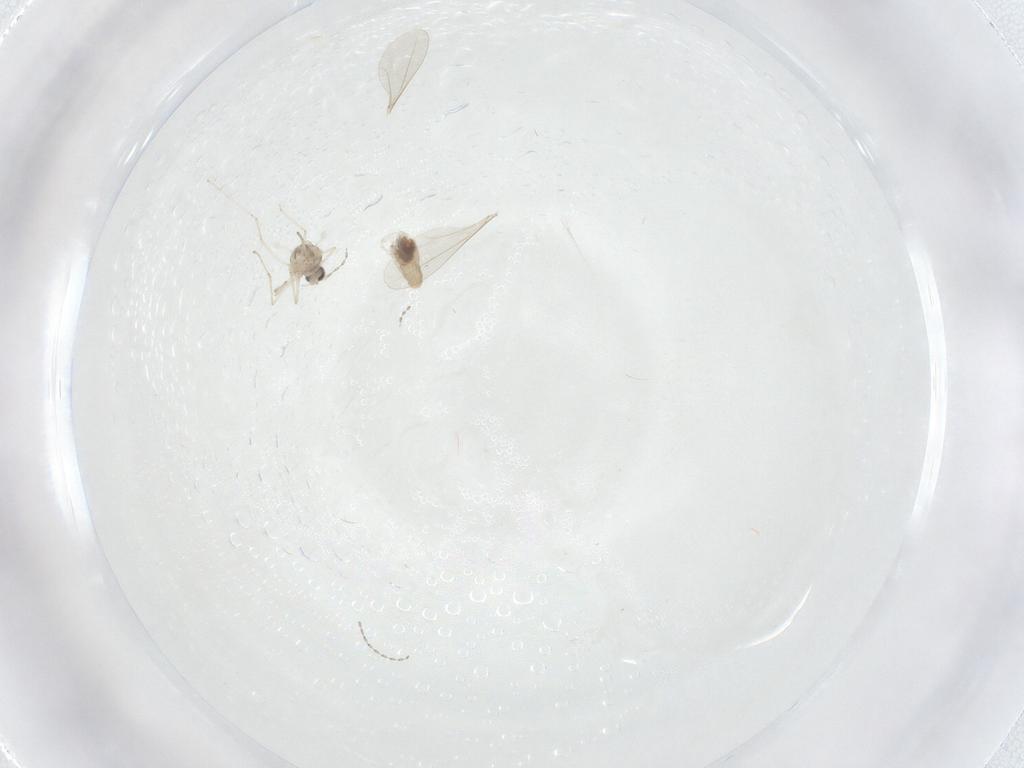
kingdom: Animalia
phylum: Arthropoda
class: Insecta
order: Diptera
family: Cecidomyiidae
